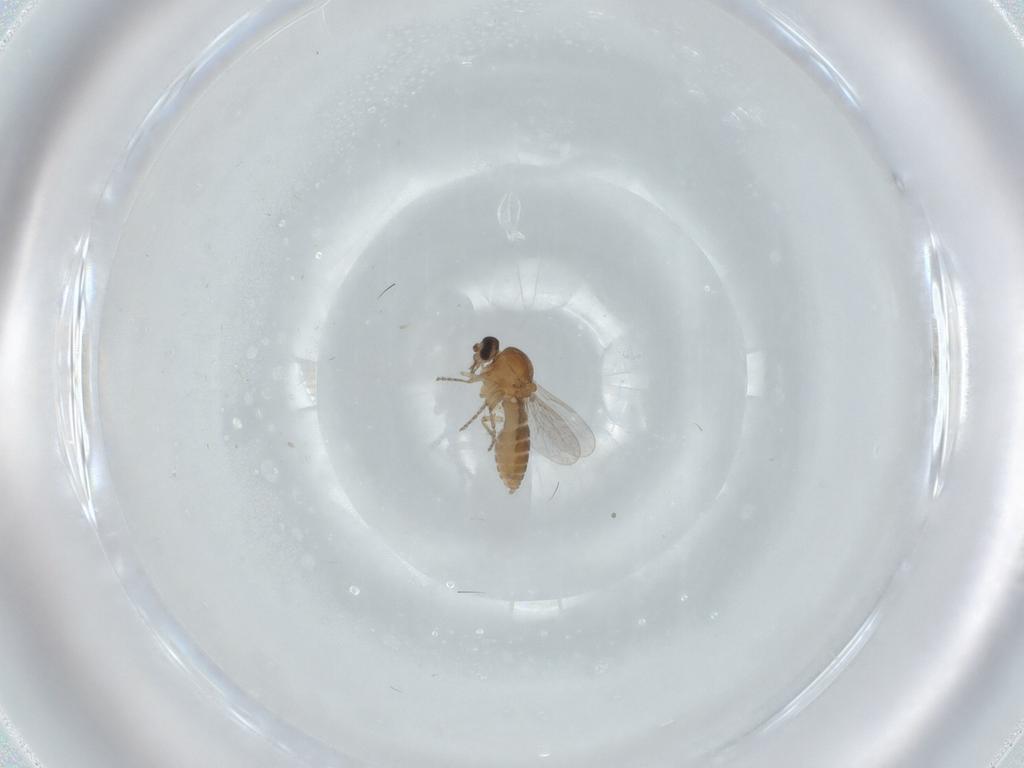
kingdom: Animalia
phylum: Arthropoda
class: Insecta
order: Diptera
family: Ceratopogonidae
